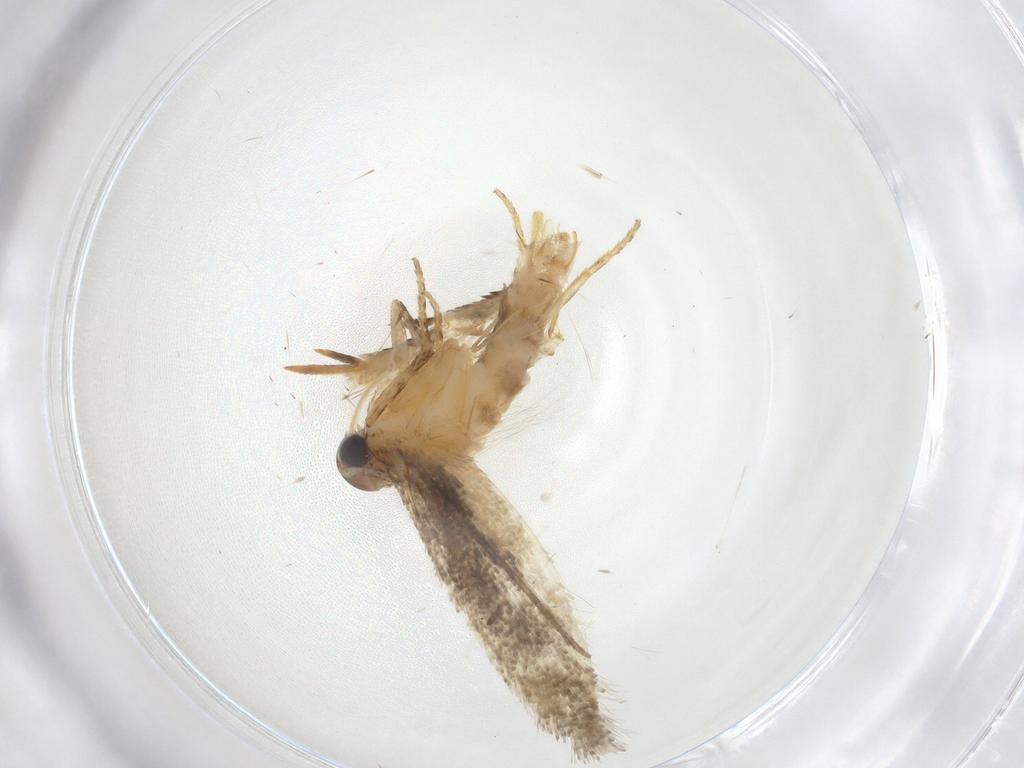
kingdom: Animalia
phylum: Arthropoda
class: Insecta
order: Lepidoptera
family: Gelechiidae
